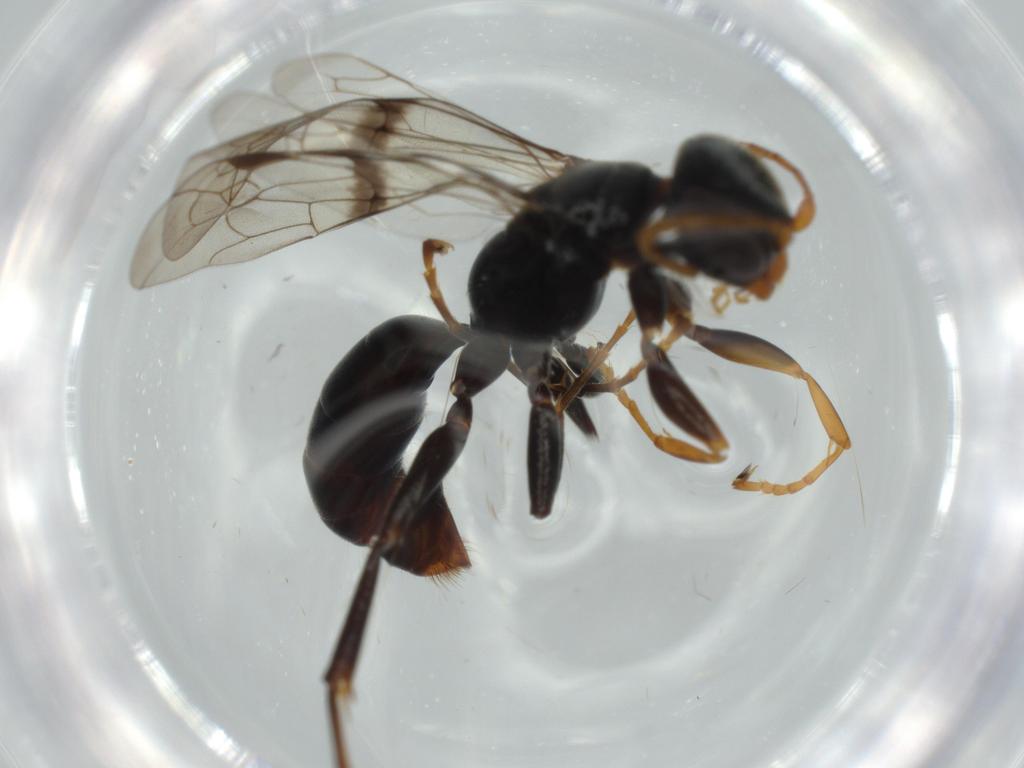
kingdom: Animalia
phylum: Arthropoda
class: Insecta
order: Hymenoptera
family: Pompilidae
